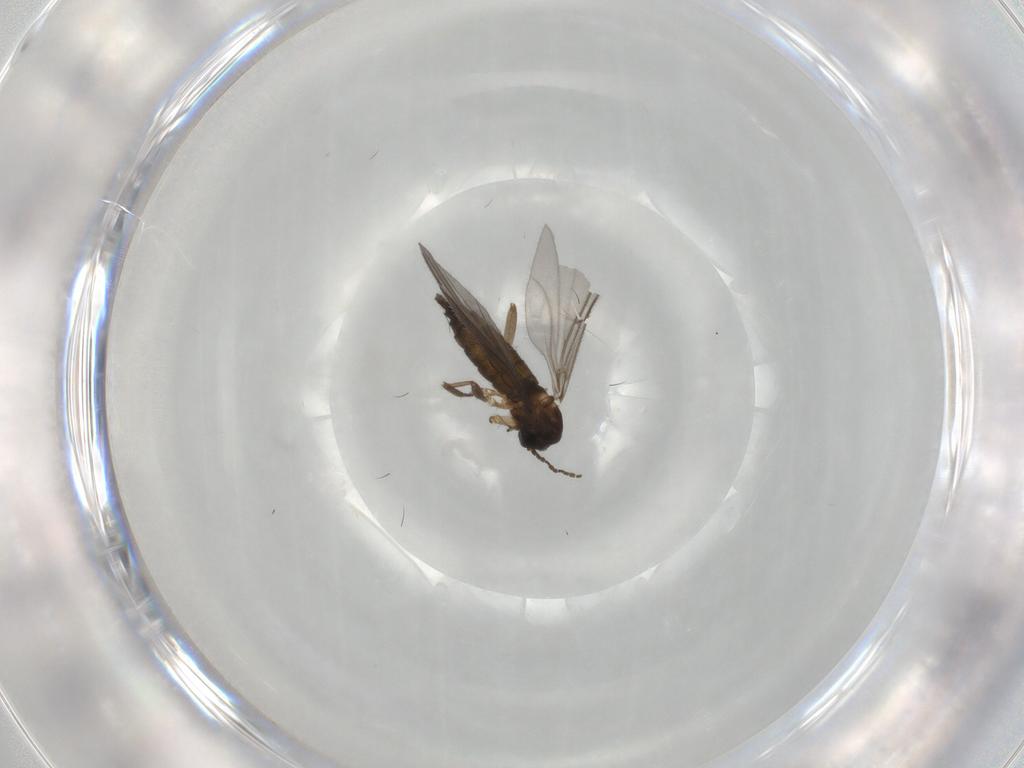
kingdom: Animalia
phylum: Arthropoda
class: Insecta
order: Diptera
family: Sciaridae
